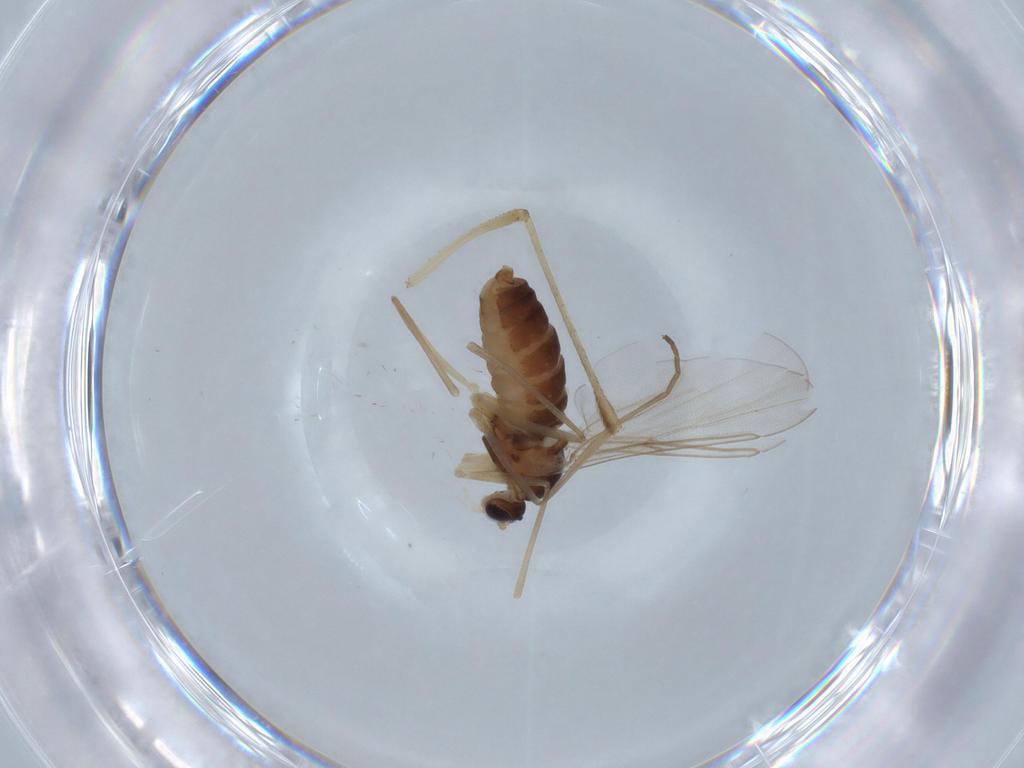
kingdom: Animalia
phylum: Arthropoda
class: Insecta
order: Diptera
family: Cecidomyiidae
